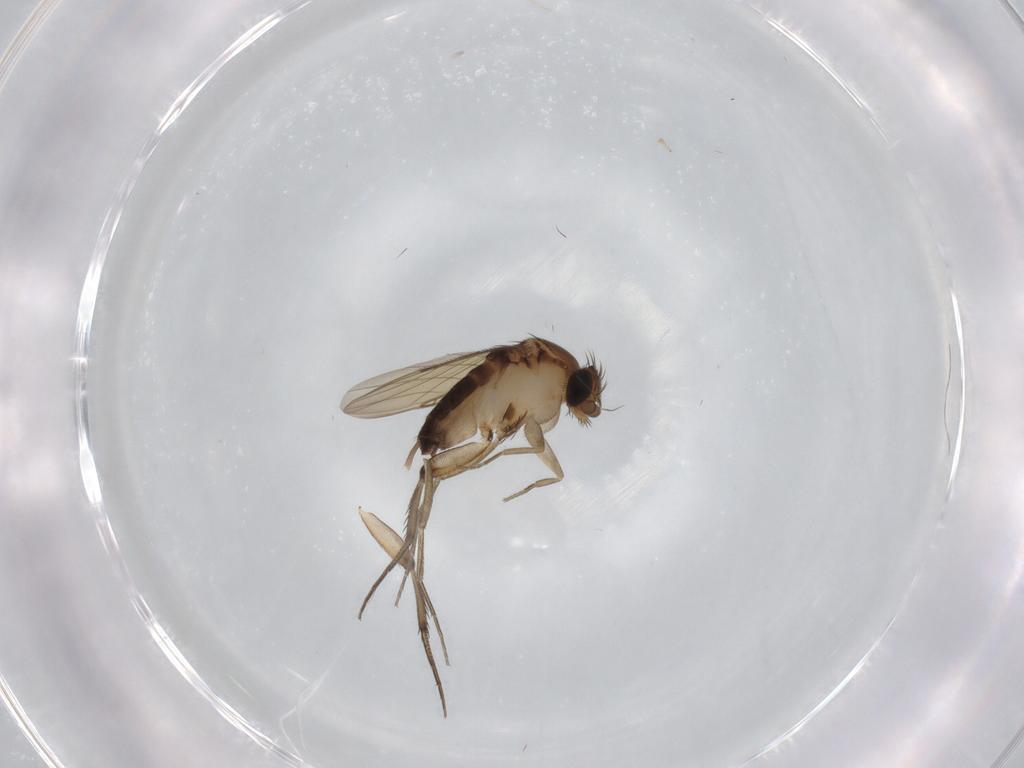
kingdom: Animalia
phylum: Arthropoda
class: Insecta
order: Diptera
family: Phoridae
